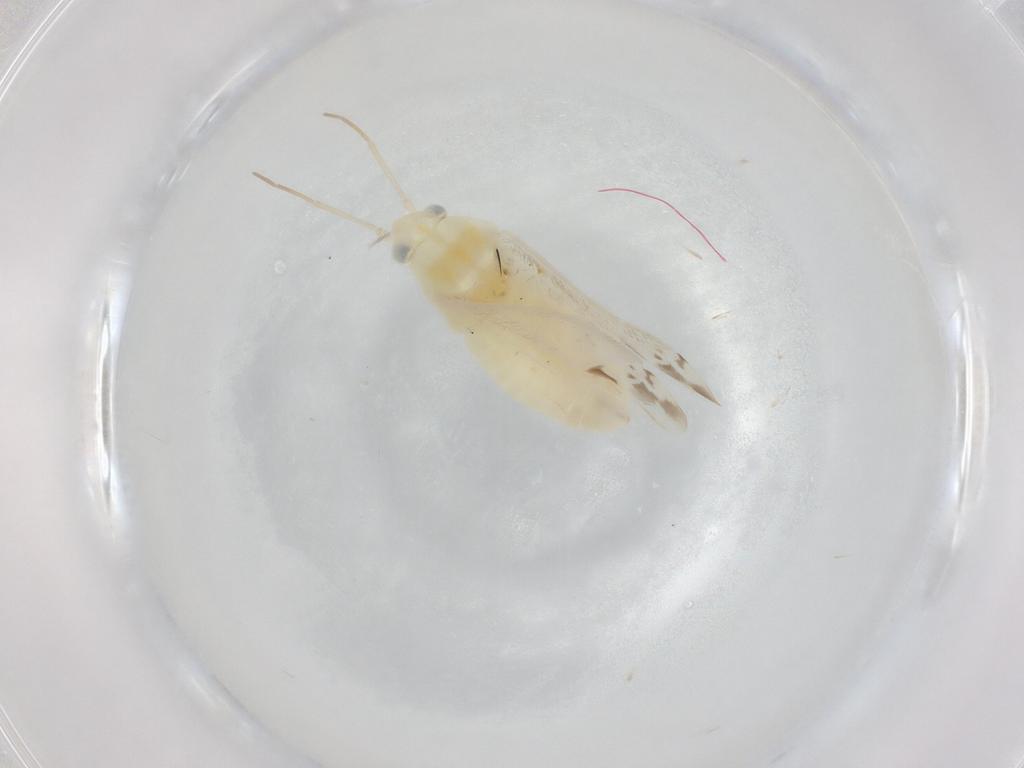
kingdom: Animalia
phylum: Arthropoda
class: Insecta
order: Hemiptera
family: Miridae
